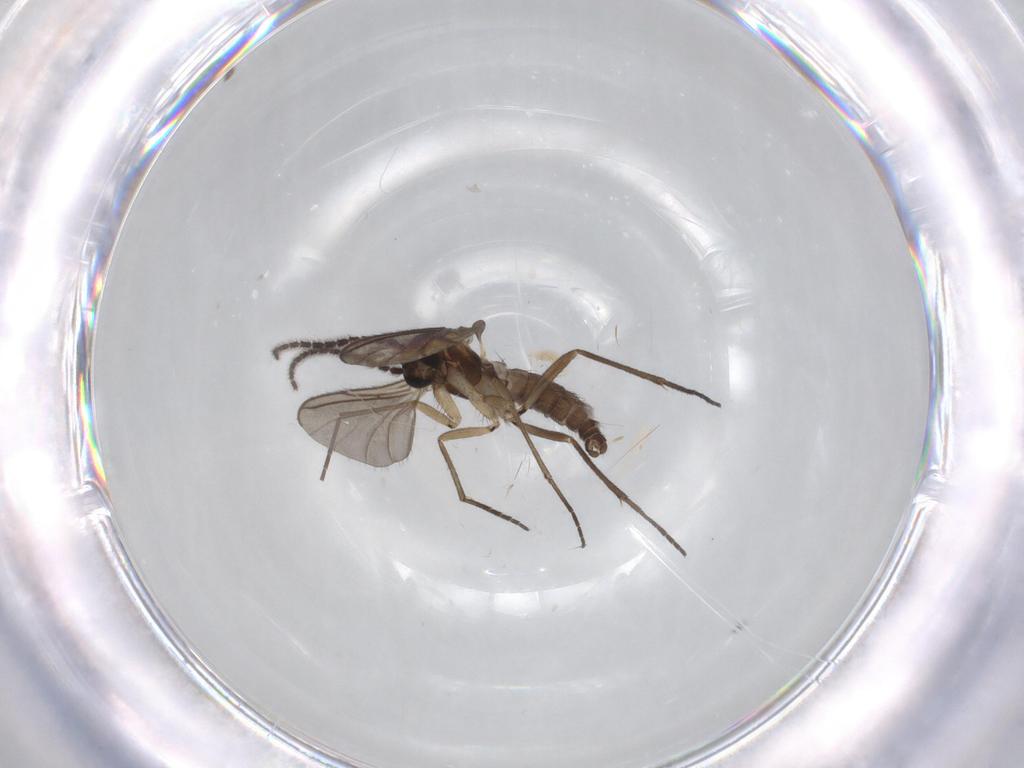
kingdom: Animalia
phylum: Arthropoda
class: Insecta
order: Diptera
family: Sciaridae
